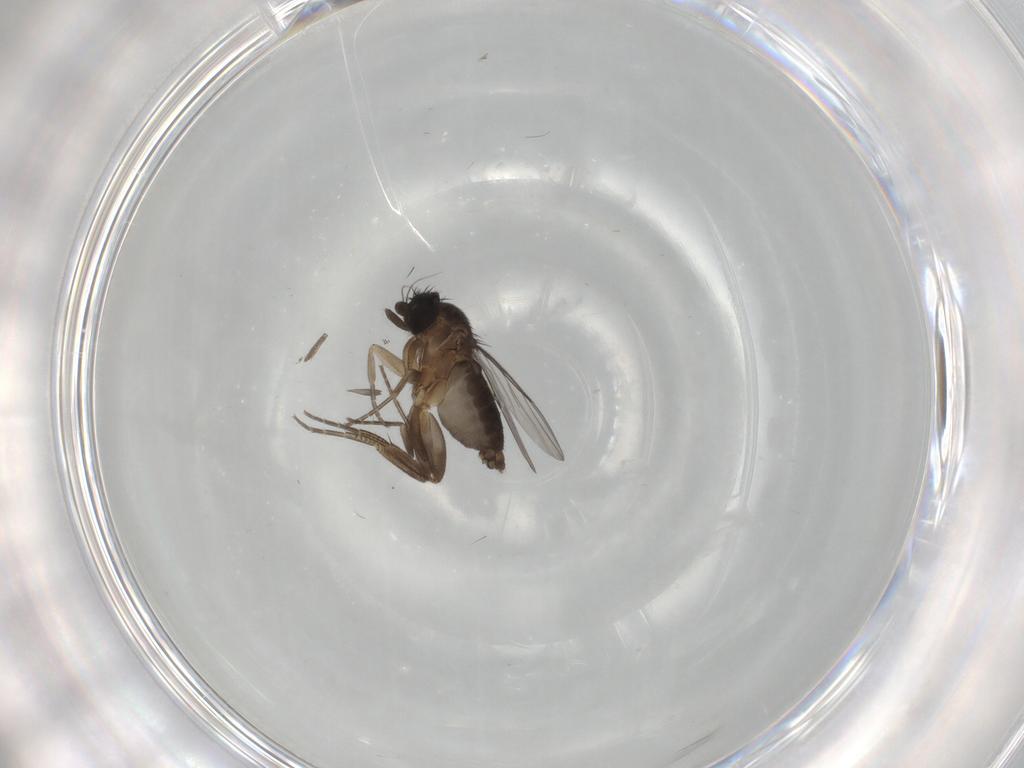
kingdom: Animalia
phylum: Arthropoda
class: Insecta
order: Diptera
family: Phoridae
